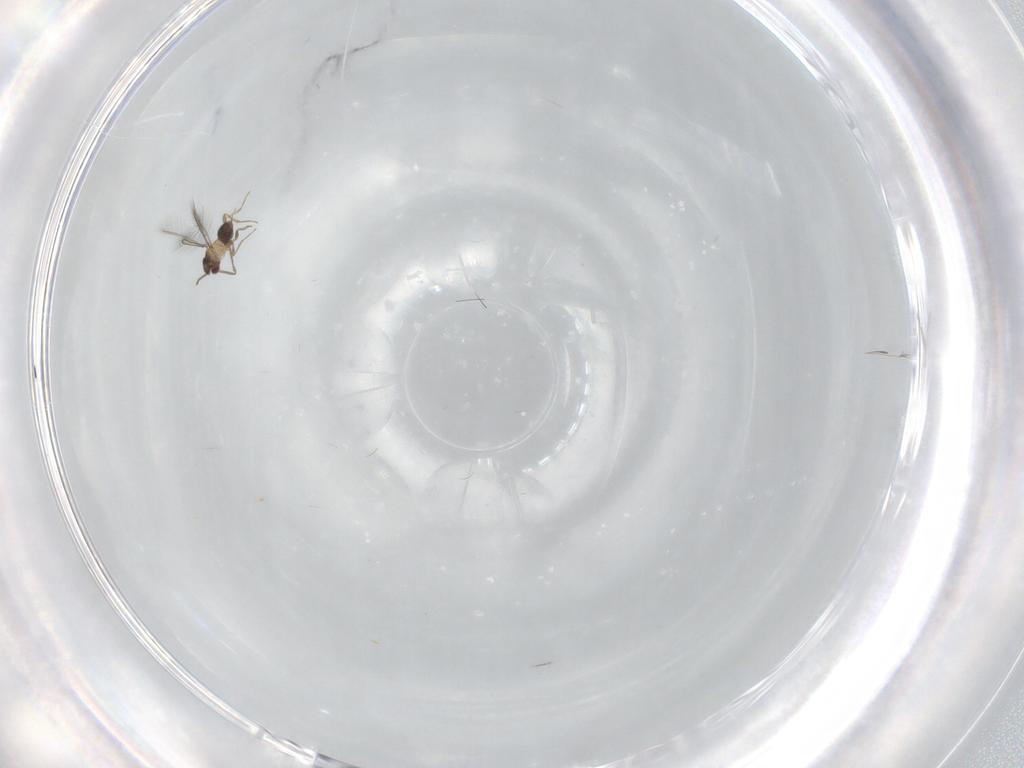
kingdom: Animalia
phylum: Arthropoda
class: Insecta
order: Hymenoptera
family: Mymaridae
